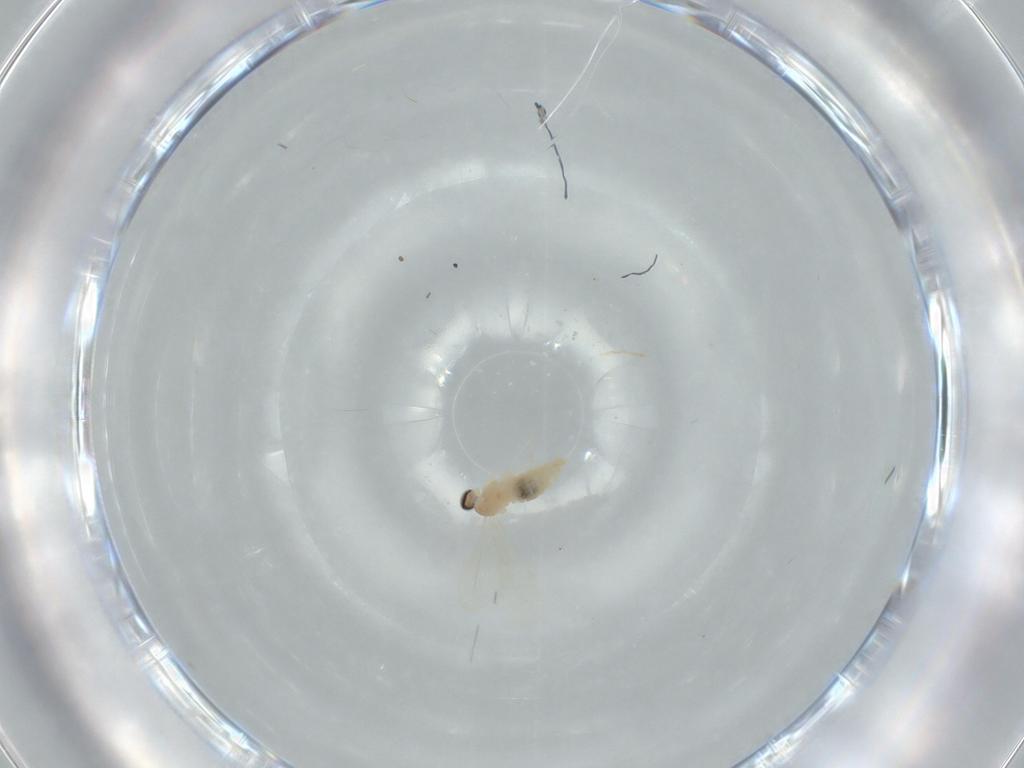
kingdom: Animalia
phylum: Arthropoda
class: Insecta
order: Diptera
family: Cecidomyiidae
